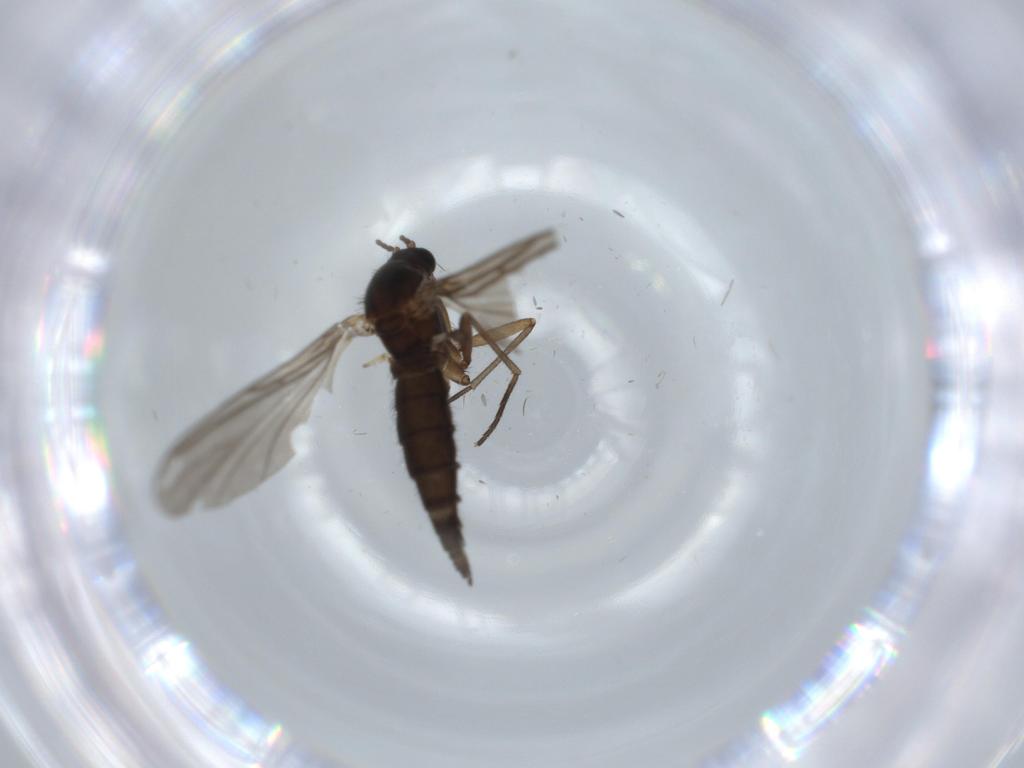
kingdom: Animalia
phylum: Arthropoda
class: Insecta
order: Diptera
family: Sciaridae
